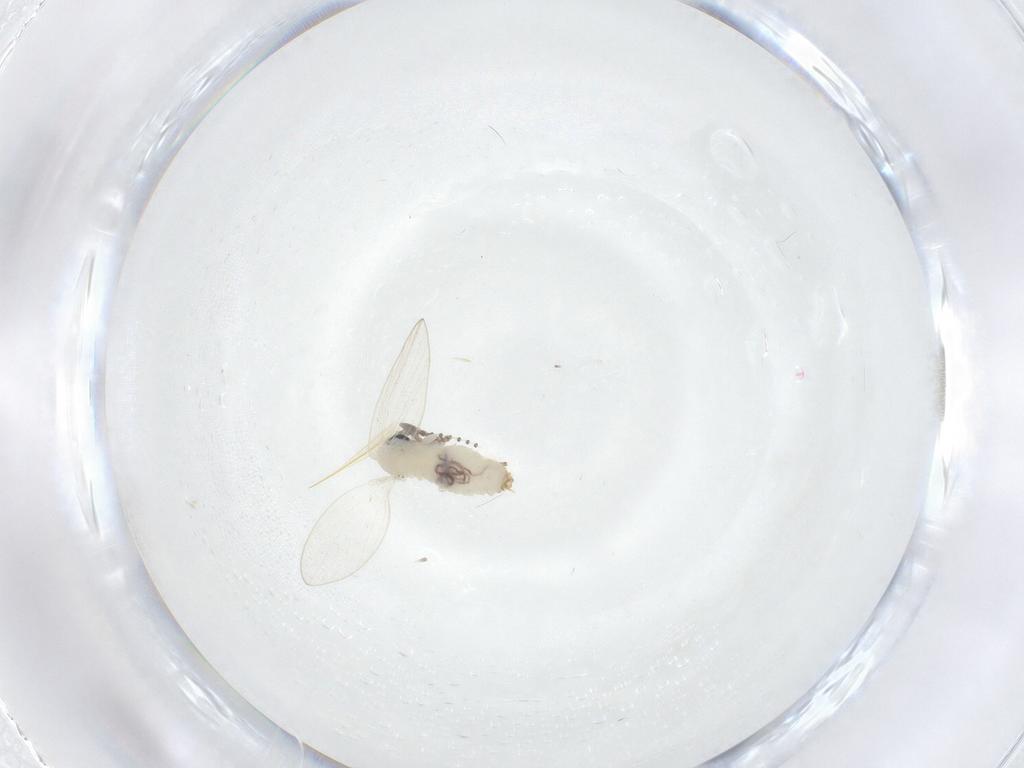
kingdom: Animalia
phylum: Arthropoda
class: Insecta
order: Diptera
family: Psychodidae
